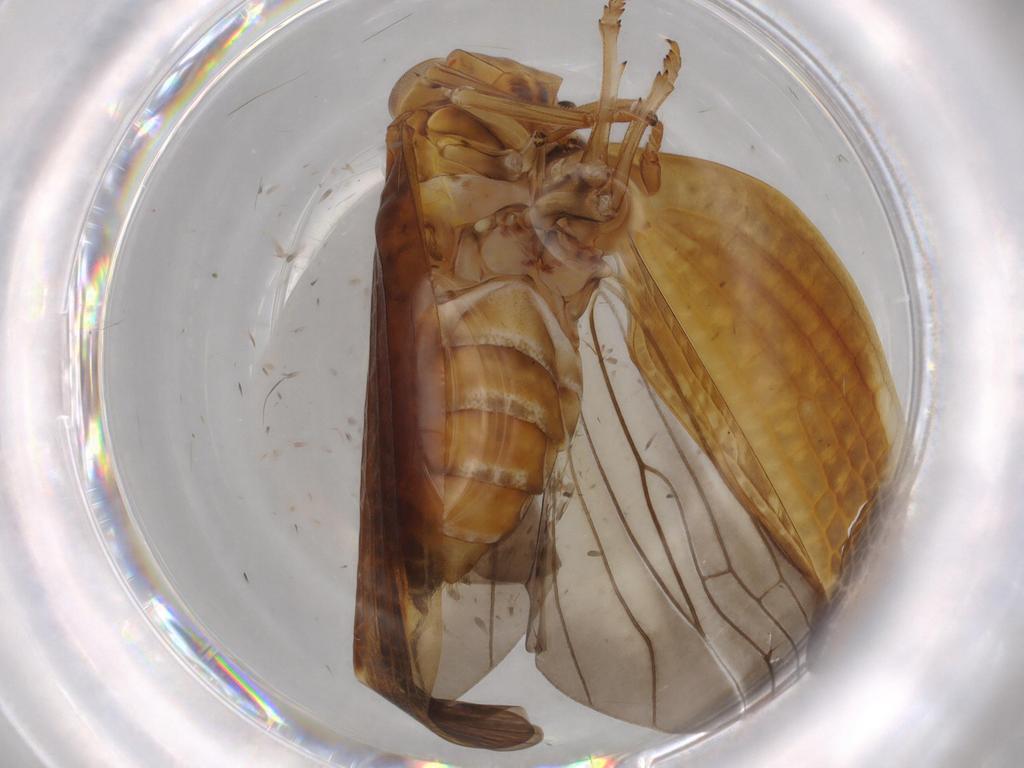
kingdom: Animalia
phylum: Arthropoda
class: Insecta
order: Hemiptera
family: Nogodinidae
